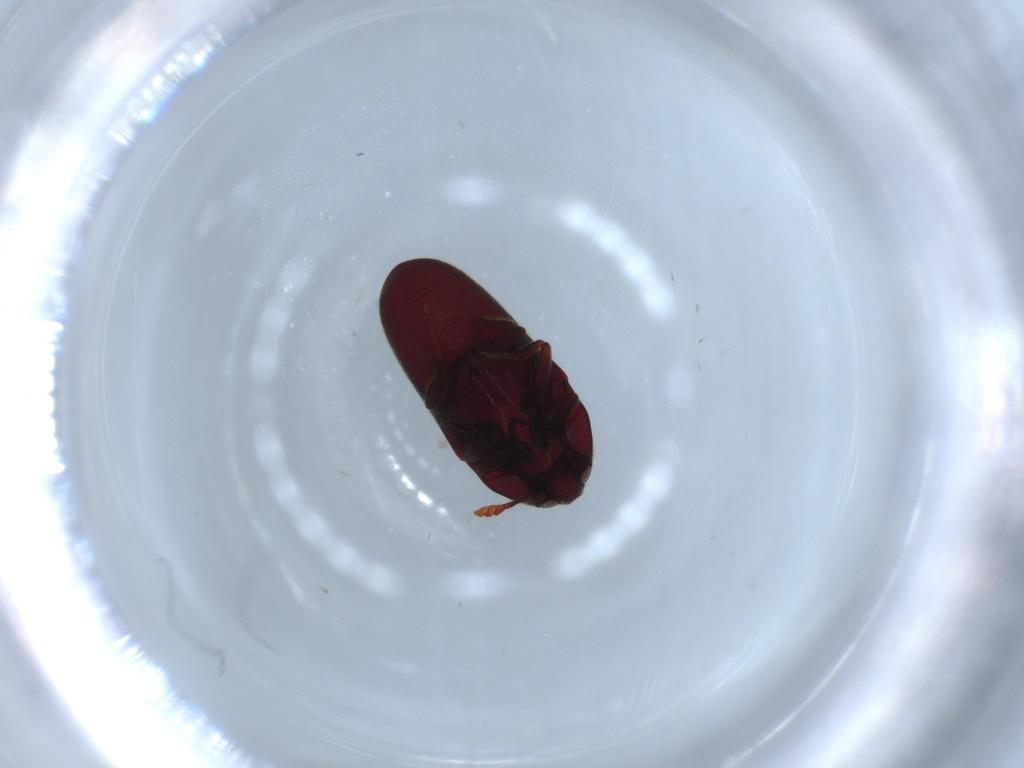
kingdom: Animalia
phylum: Arthropoda
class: Insecta
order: Coleoptera
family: Throscidae
